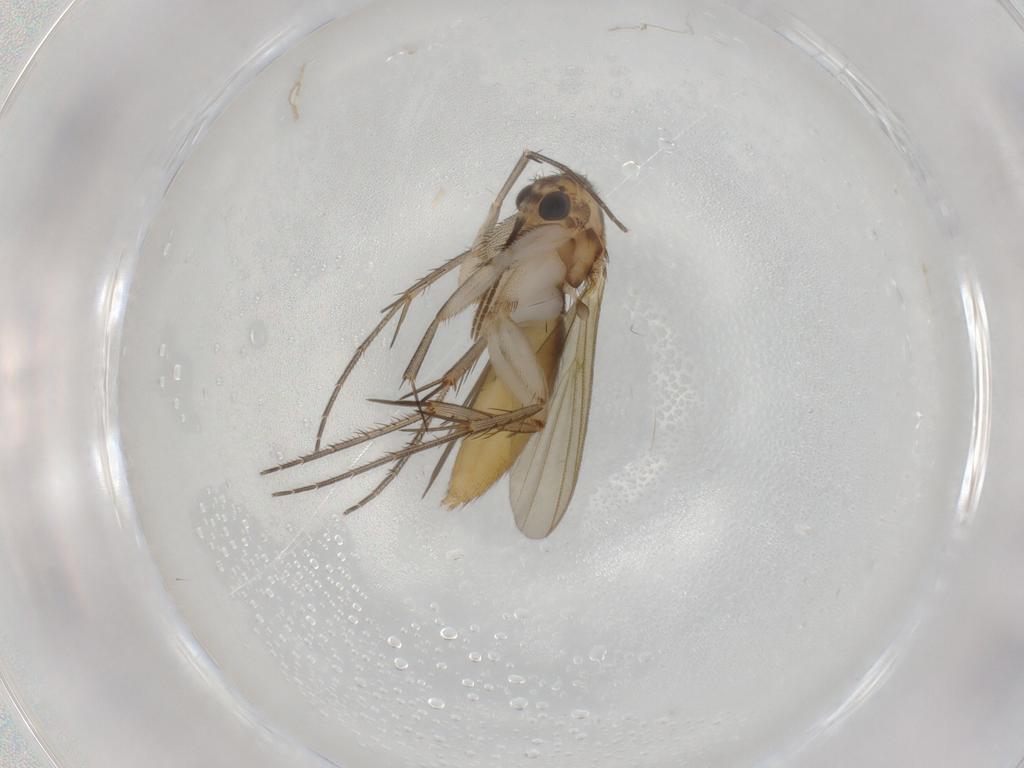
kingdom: Animalia
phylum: Arthropoda
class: Insecta
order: Diptera
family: Mycetophilidae
